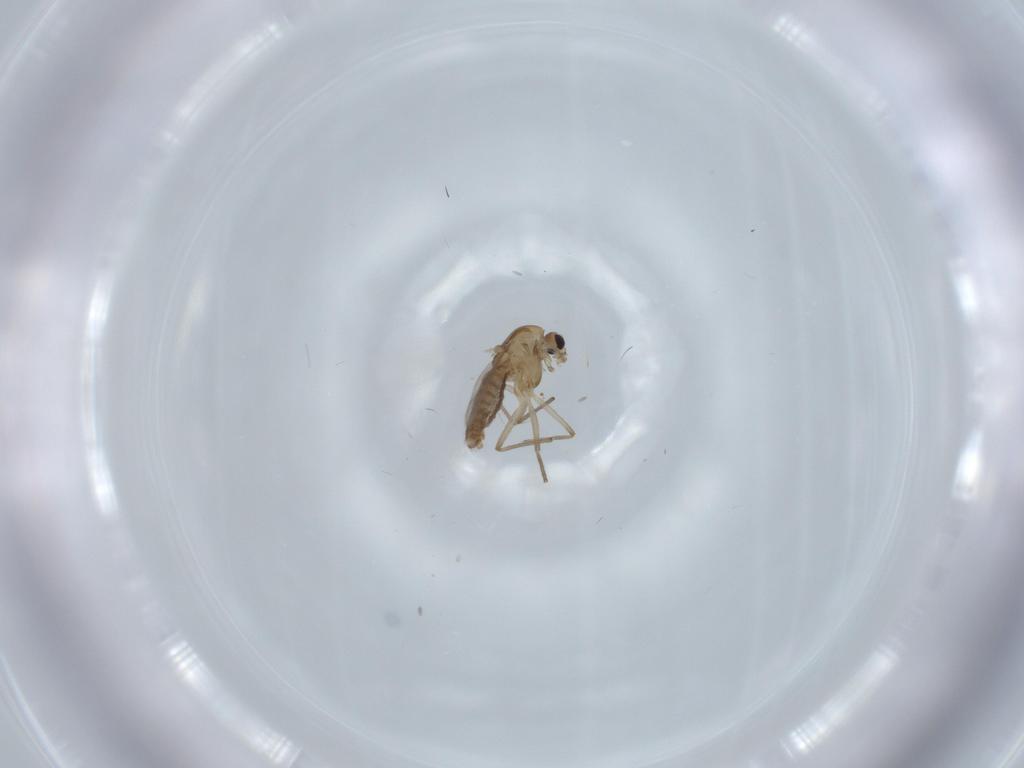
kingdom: Animalia
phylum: Arthropoda
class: Insecta
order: Diptera
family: Chironomidae
